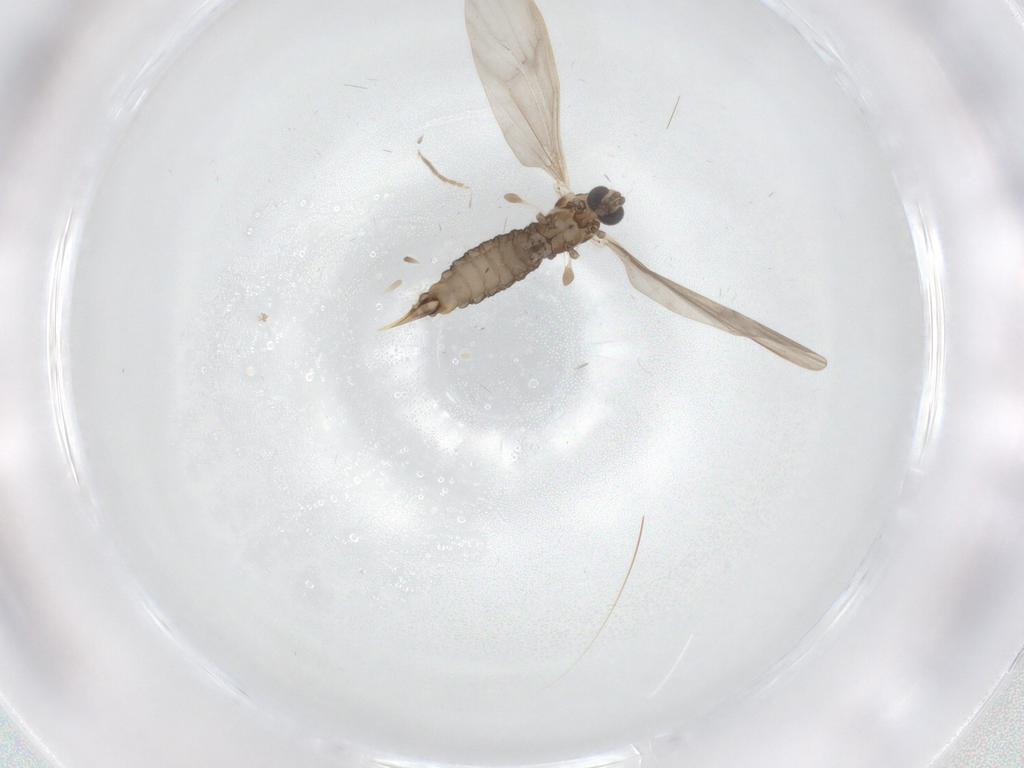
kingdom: Animalia
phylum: Arthropoda
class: Insecta
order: Diptera
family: Limoniidae
